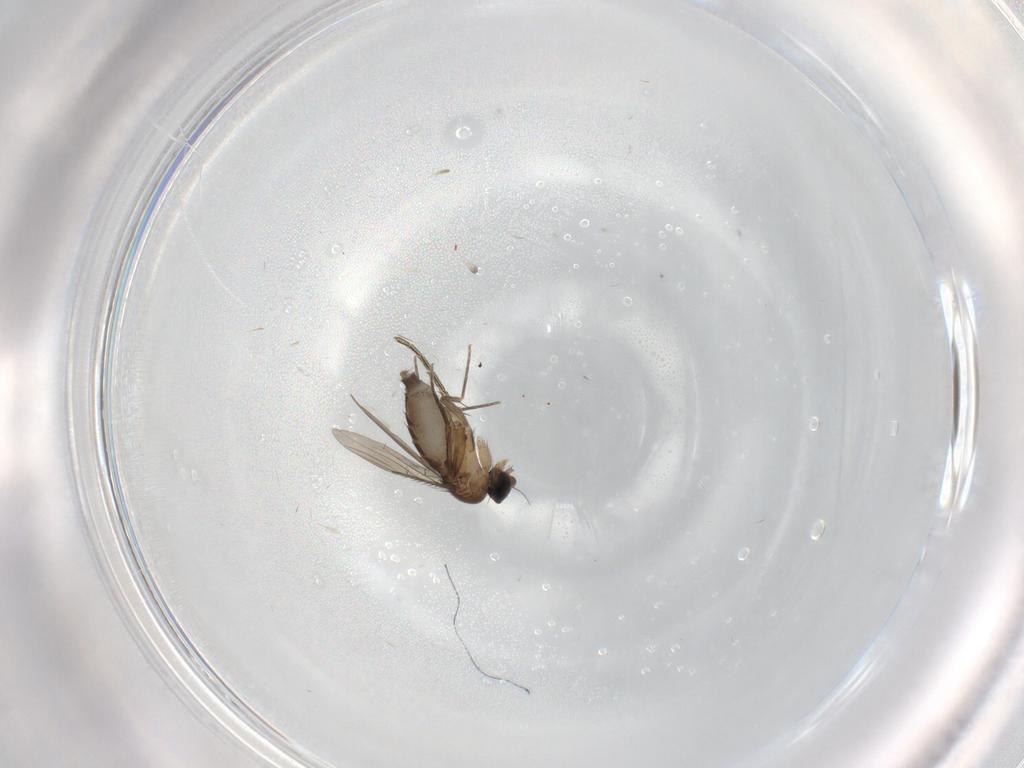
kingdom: Animalia
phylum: Arthropoda
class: Insecta
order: Diptera
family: Phoridae
